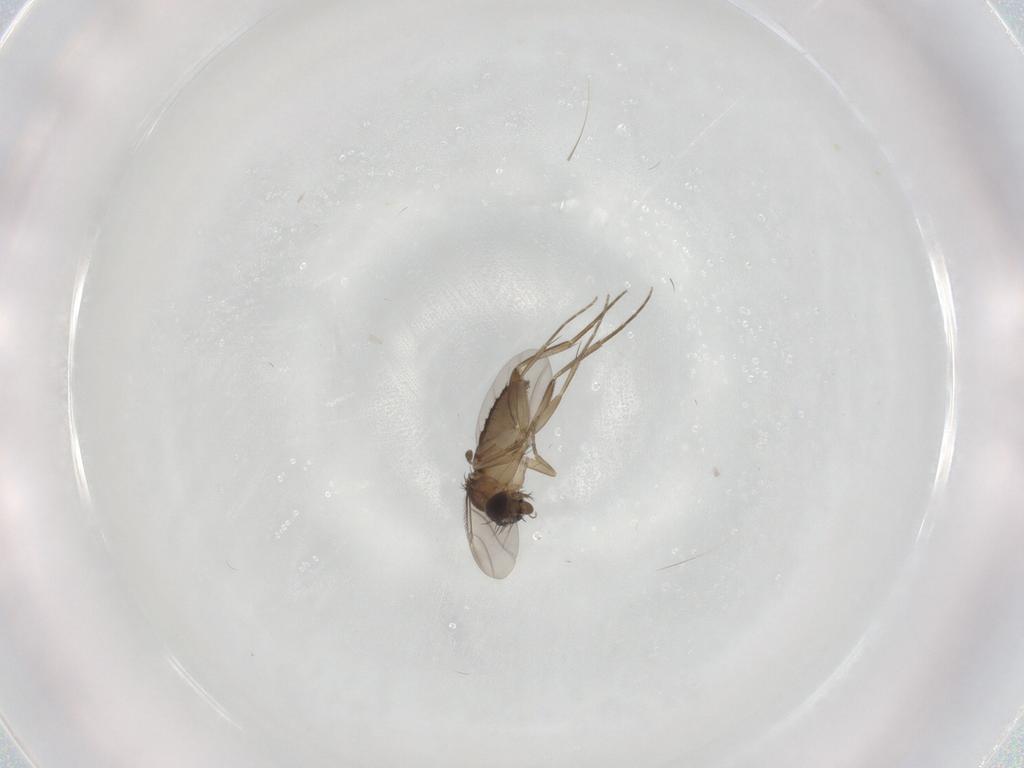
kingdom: Animalia
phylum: Arthropoda
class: Insecta
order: Diptera
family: Phoridae
